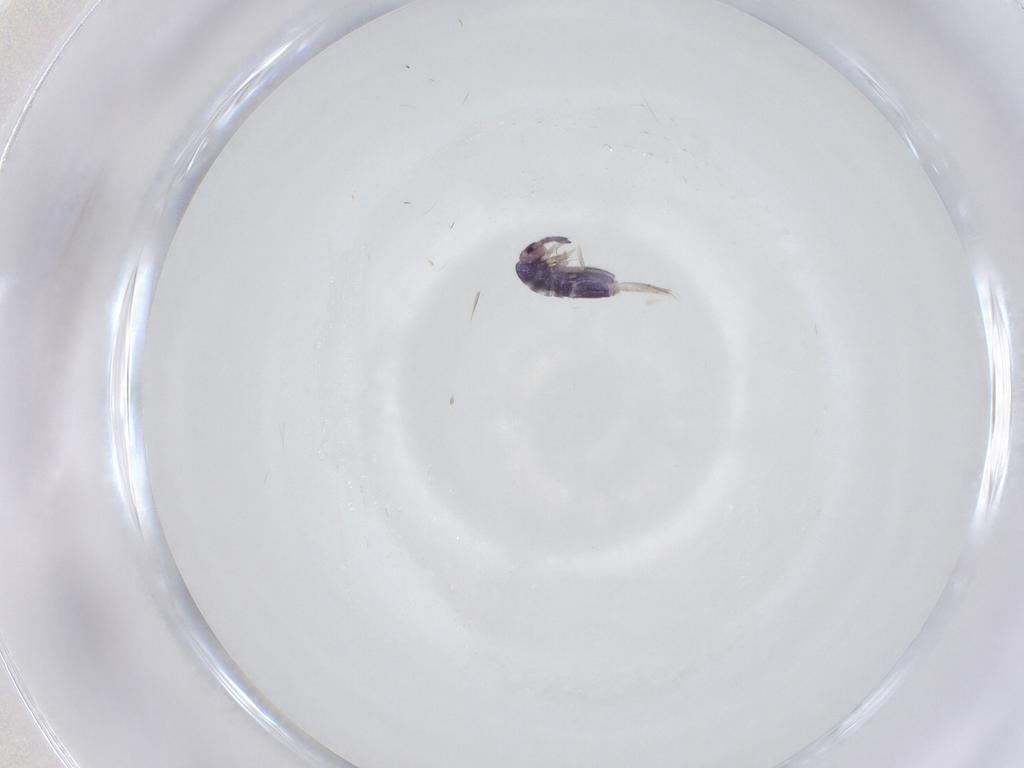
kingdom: Animalia
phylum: Arthropoda
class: Collembola
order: Entomobryomorpha
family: Entomobryidae
